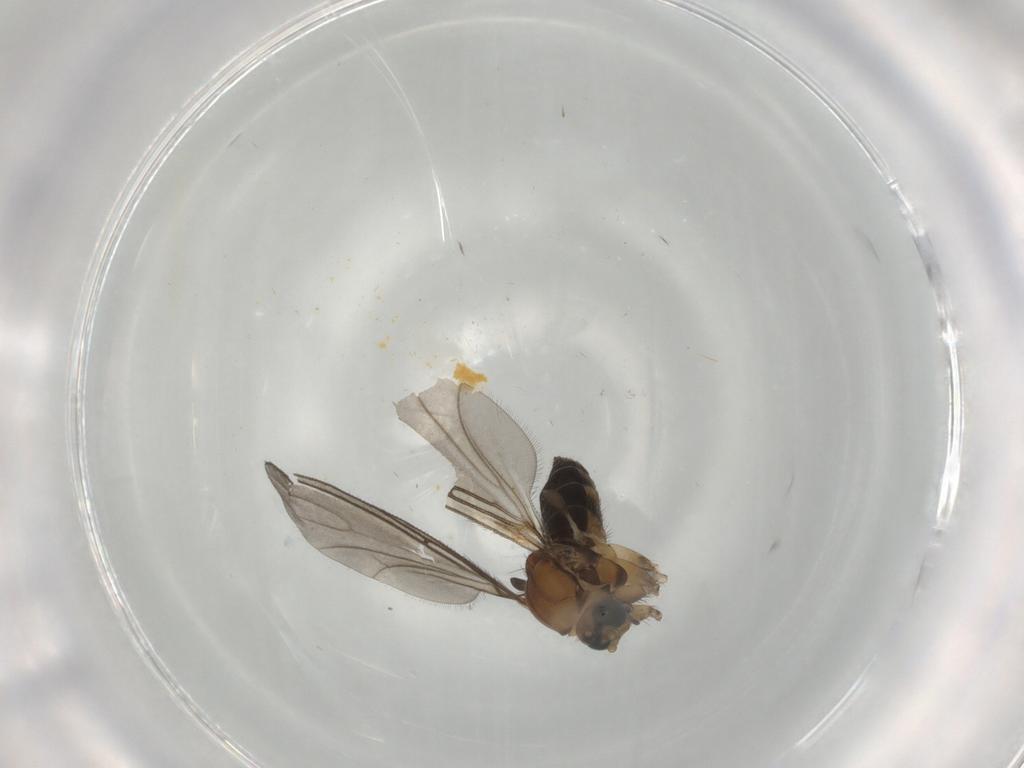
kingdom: Animalia
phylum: Arthropoda
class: Insecta
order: Diptera
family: Sciaridae
